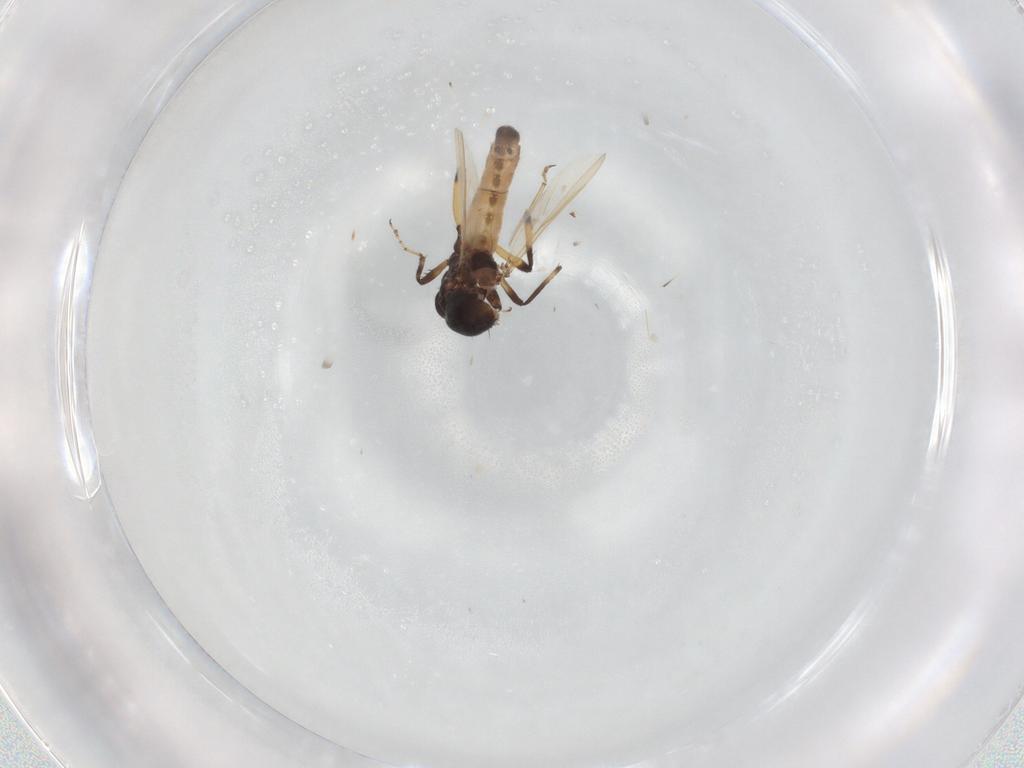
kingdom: Animalia
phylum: Arthropoda
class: Insecta
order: Diptera
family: Ceratopogonidae
